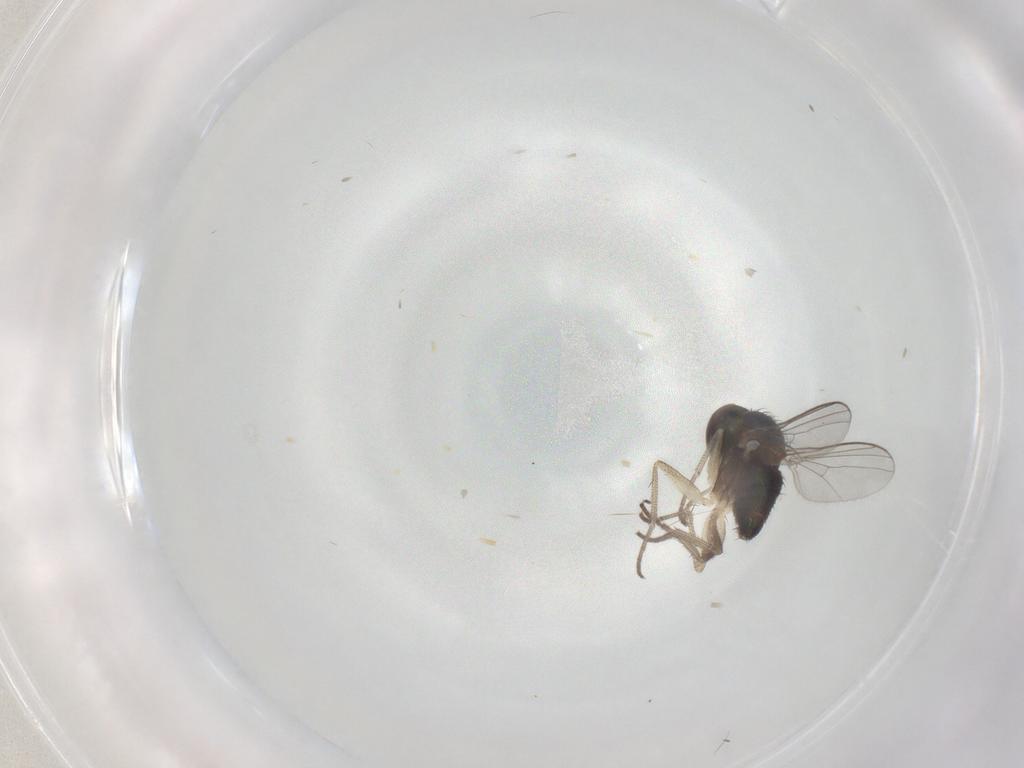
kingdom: Animalia
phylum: Arthropoda
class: Insecta
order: Diptera
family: Dolichopodidae
